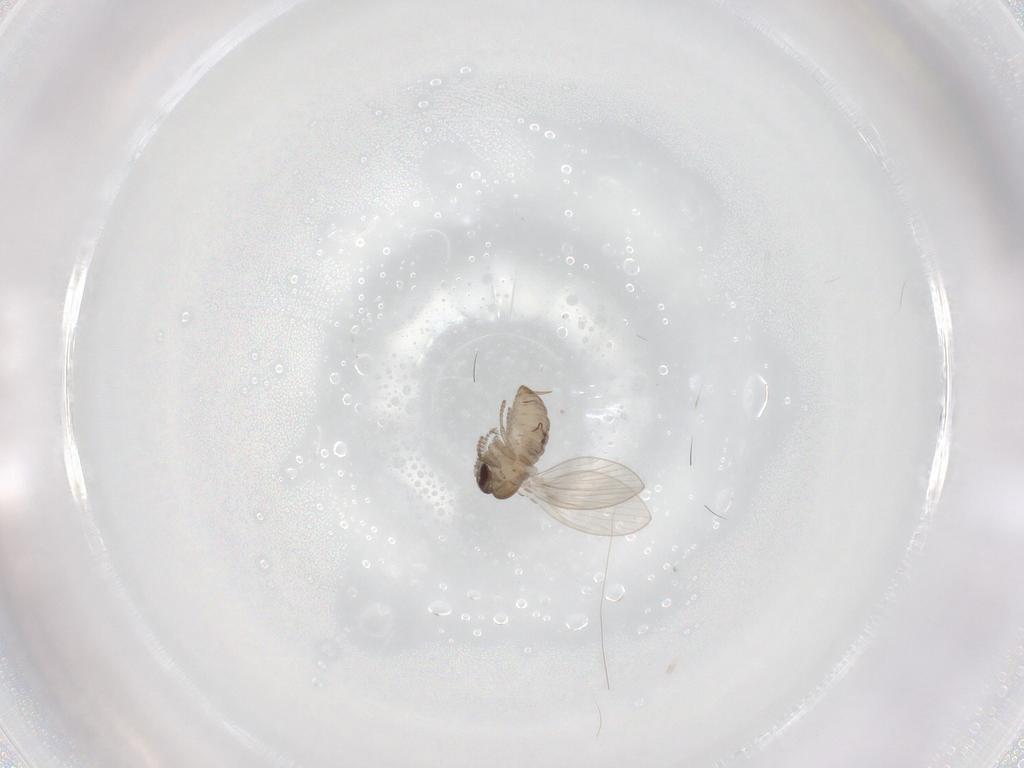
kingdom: Animalia
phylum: Arthropoda
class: Insecta
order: Diptera
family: Psychodidae
